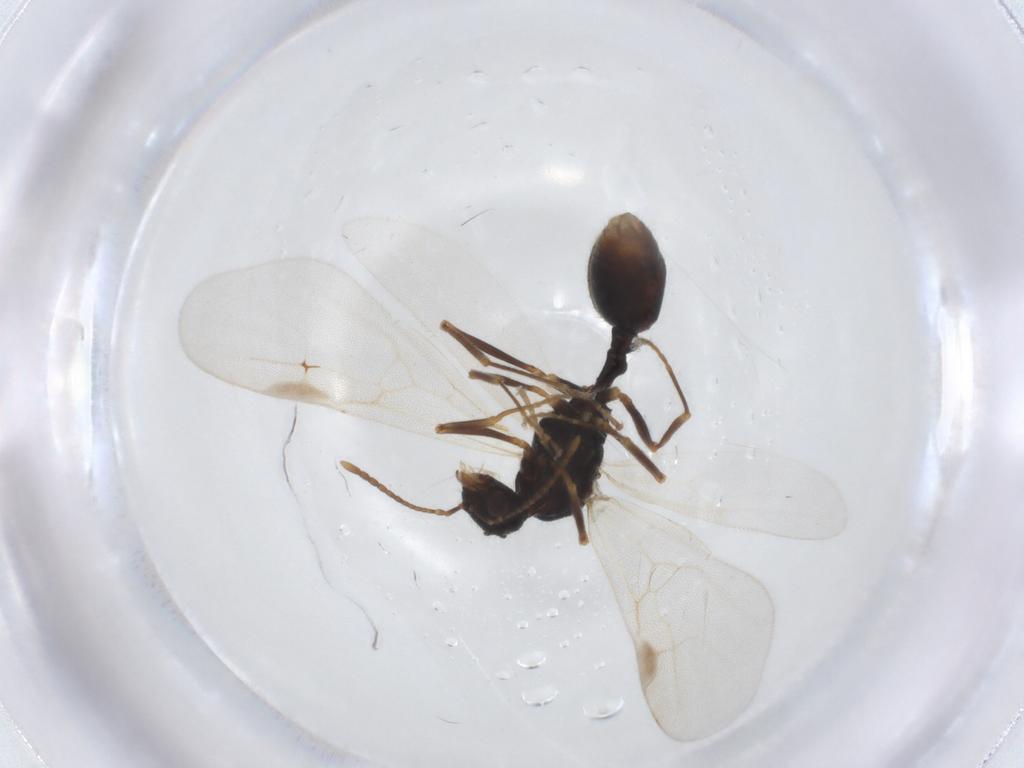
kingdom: Animalia
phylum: Arthropoda
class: Insecta
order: Hymenoptera
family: Formicidae
